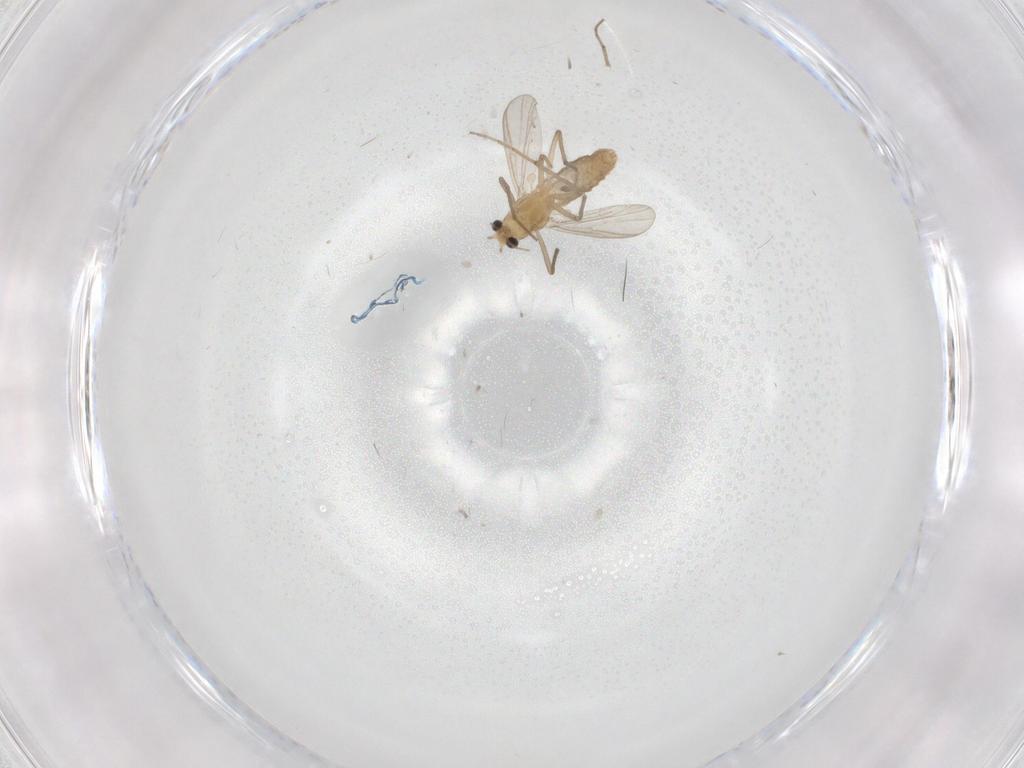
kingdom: Animalia
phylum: Arthropoda
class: Insecta
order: Diptera
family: Chironomidae
